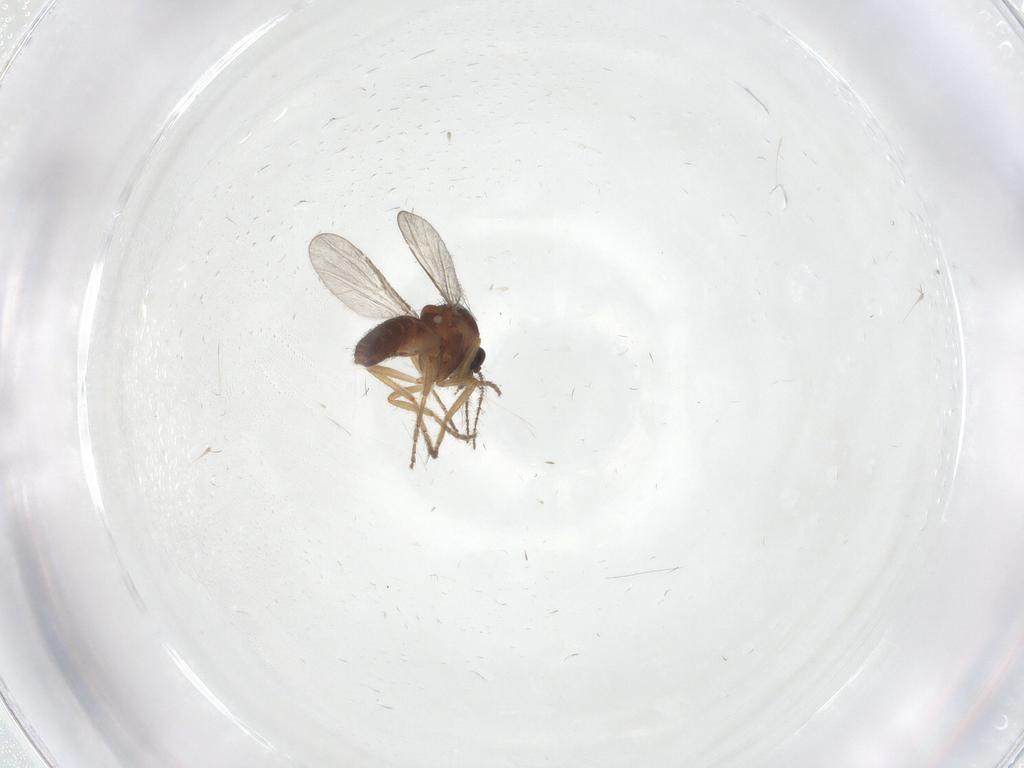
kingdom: Animalia
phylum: Arthropoda
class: Insecta
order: Diptera
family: Ceratopogonidae
